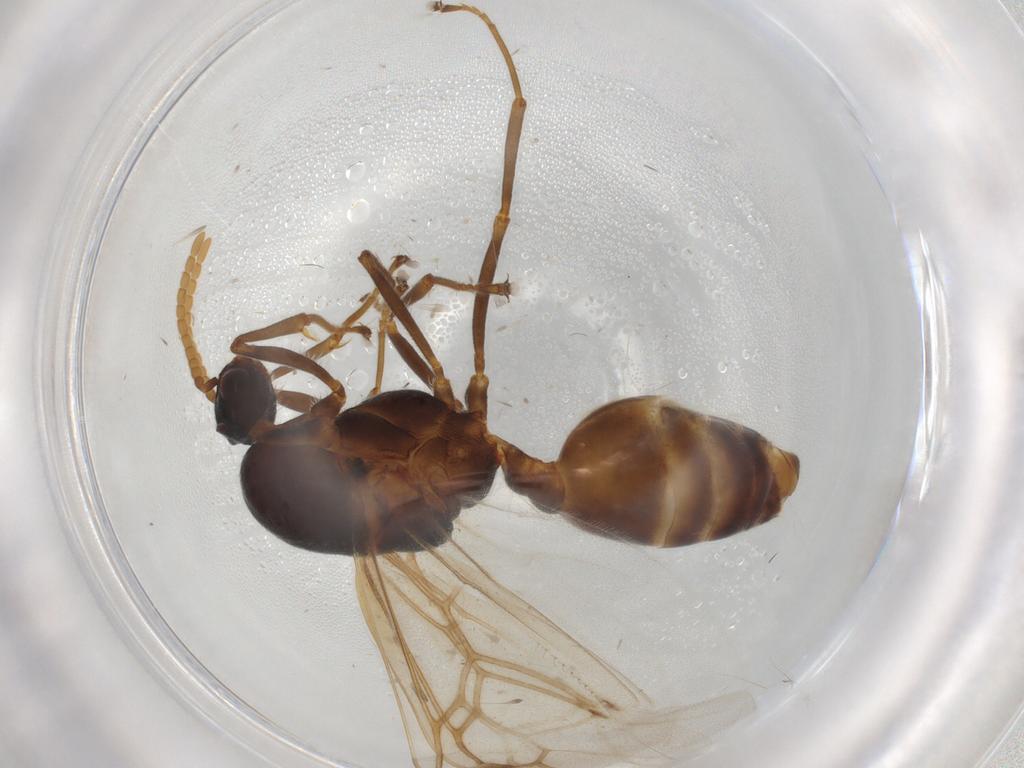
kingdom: Animalia
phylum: Arthropoda
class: Insecta
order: Hymenoptera
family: Formicidae
